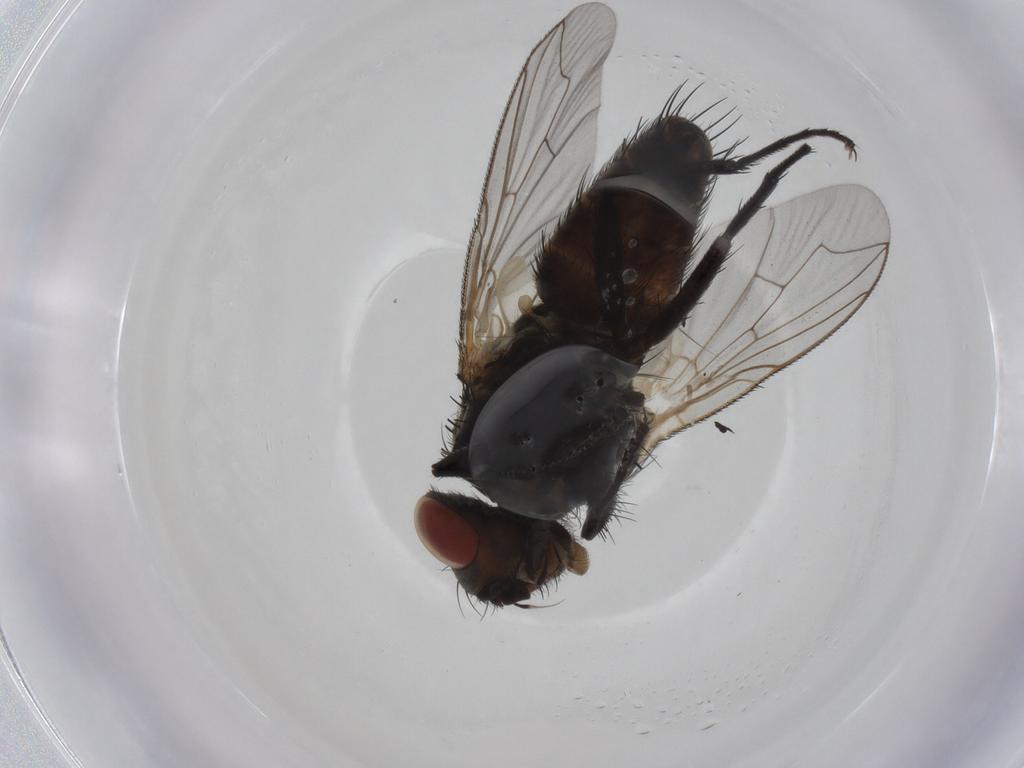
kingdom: Animalia
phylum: Arthropoda
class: Insecta
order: Diptera
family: Sarcophagidae
